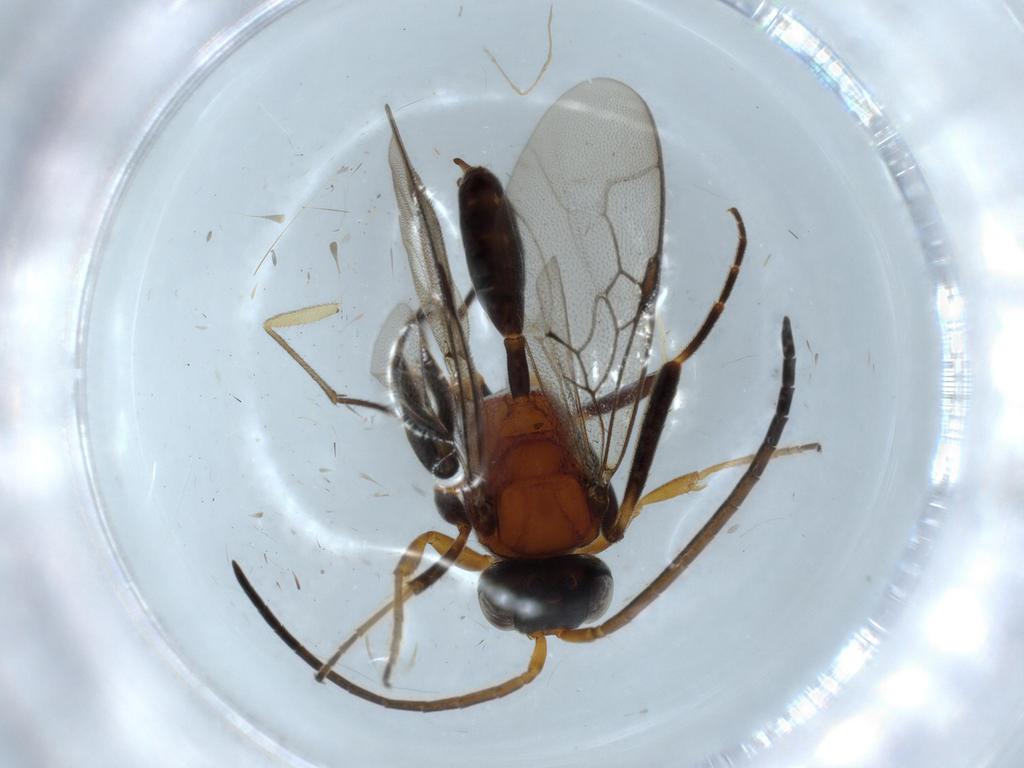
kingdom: Animalia
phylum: Arthropoda
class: Insecta
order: Hymenoptera
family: Evaniidae
